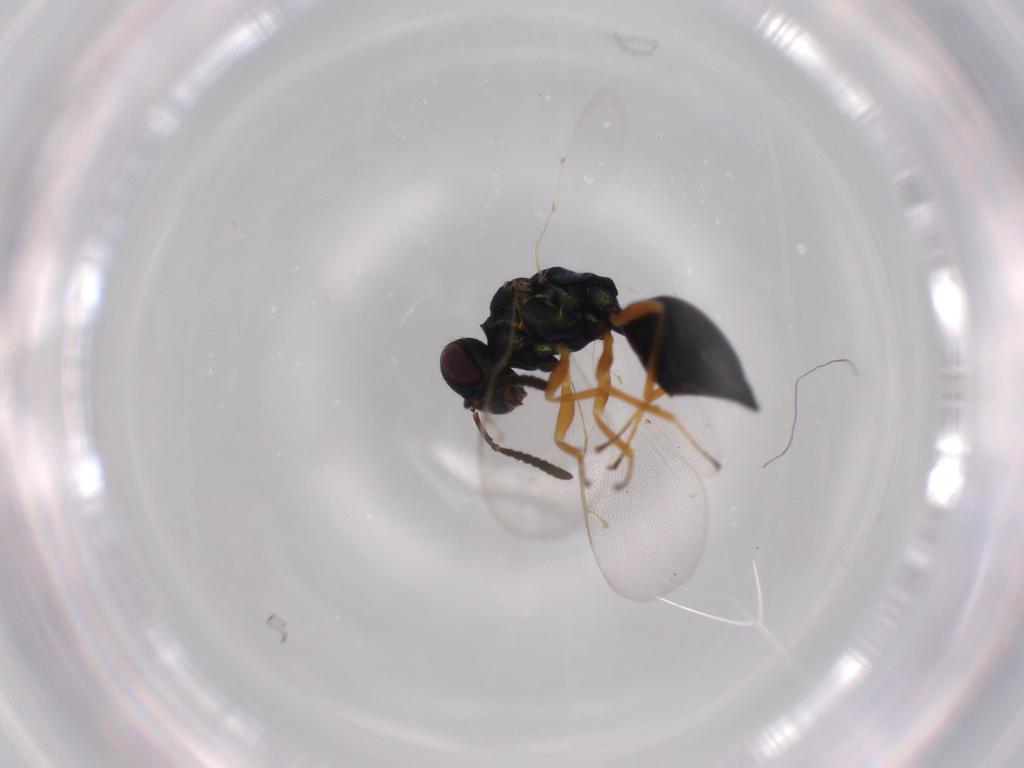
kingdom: Animalia
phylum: Arthropoda
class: Insecta
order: Hymenoptera
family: Pteromalidae
